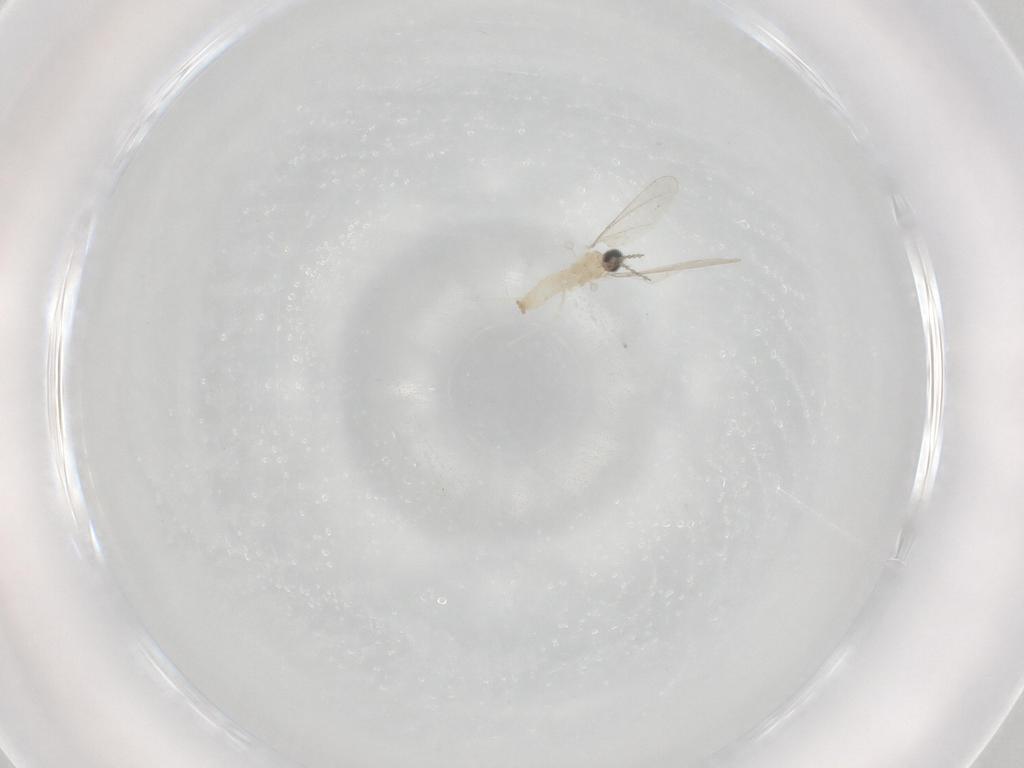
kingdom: Animalia
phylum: Arthropoda
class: Insecta
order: Diptera
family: Cecidomyiidae
